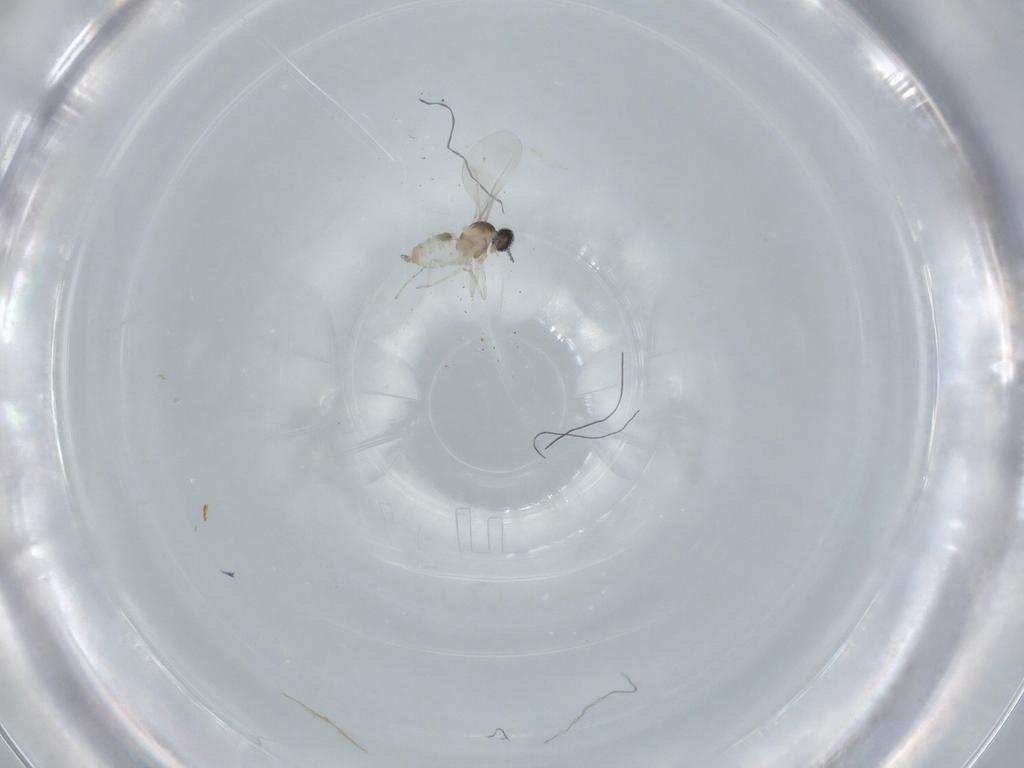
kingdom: Animalia
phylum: Arthropoda
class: Insecta
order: Diptera
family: Cecidomyiidae
